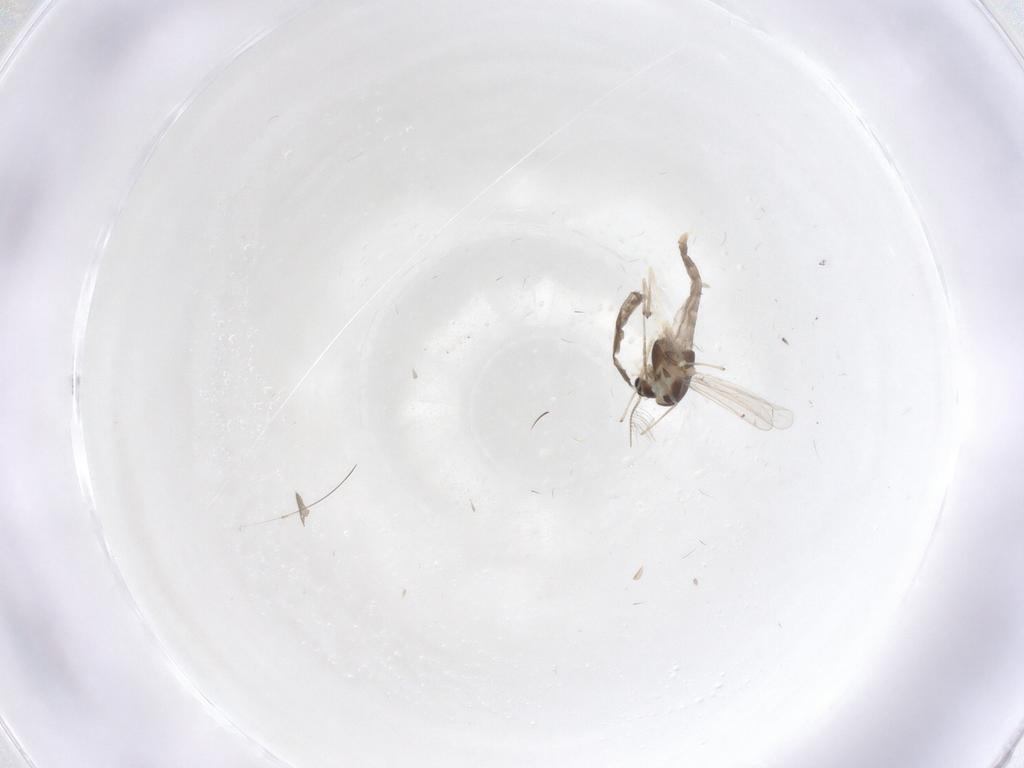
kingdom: Animalia
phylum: Arthropoda
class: Insecta
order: Diptera
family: Chironomidae
